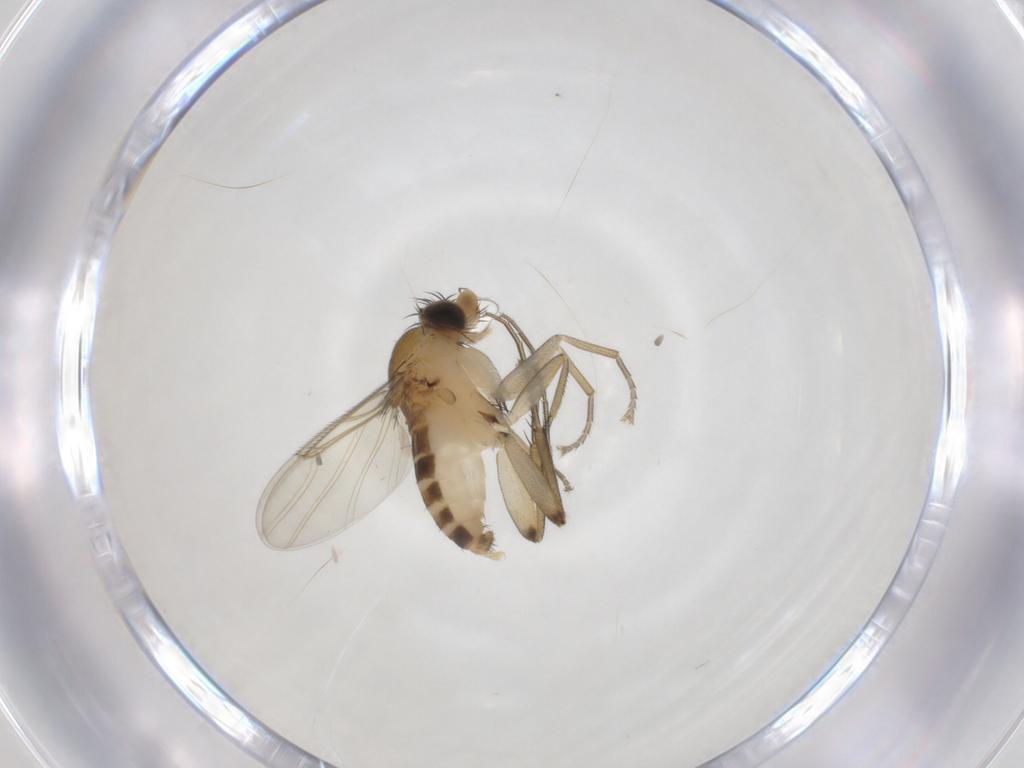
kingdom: Animalia
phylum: Arthropoda
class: Insecta
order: Diptera
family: Phoridae
